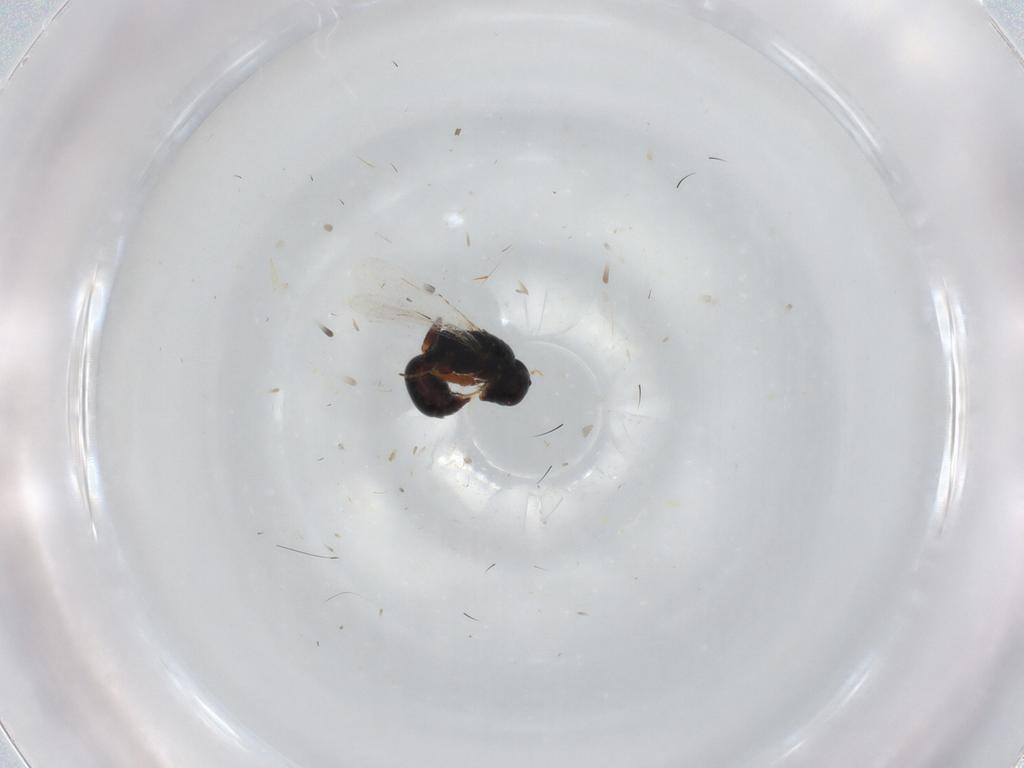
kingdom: Animalia
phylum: Arthropoda
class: Insecta
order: Hymenoptera
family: Bethylidae
